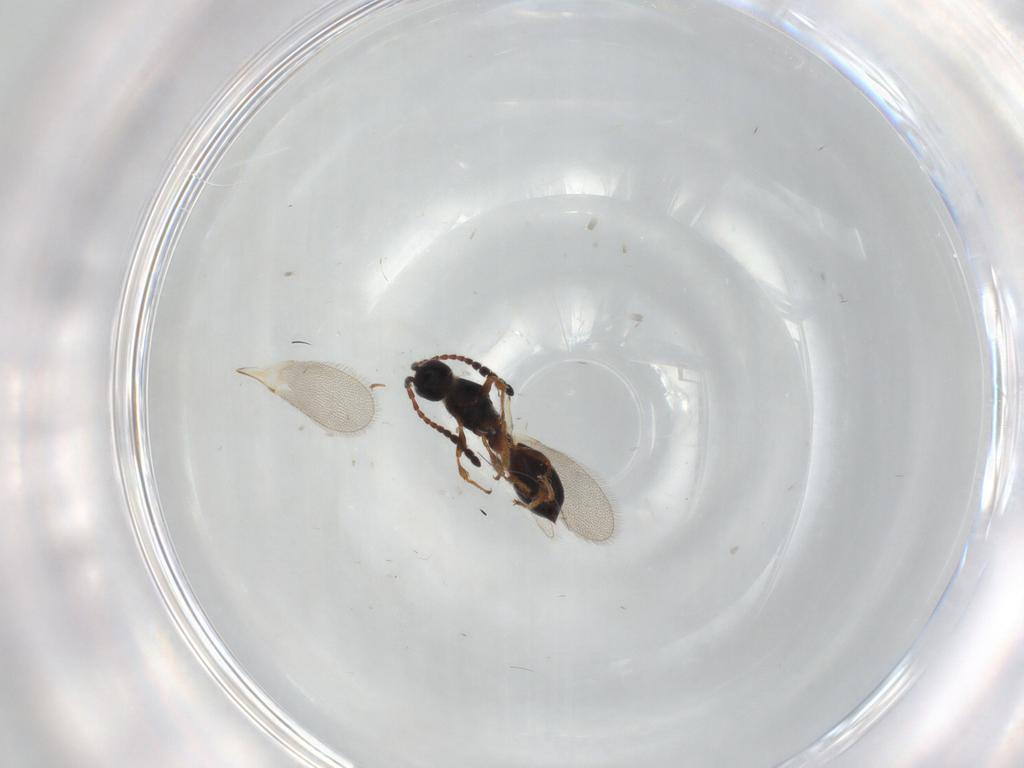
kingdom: Animalia
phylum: Arthropoda
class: Insecta
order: Hymenoptera
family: Diapriidae
